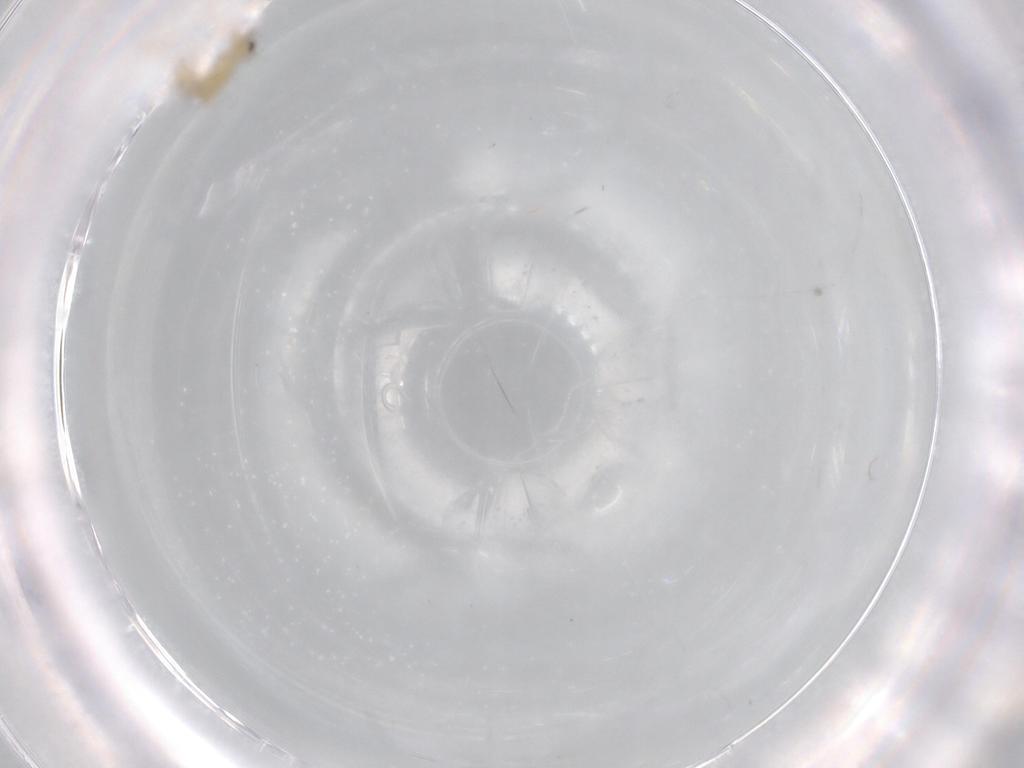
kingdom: Animalia
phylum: Arthropoda
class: Insecta
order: Diptera
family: Chironomidae
